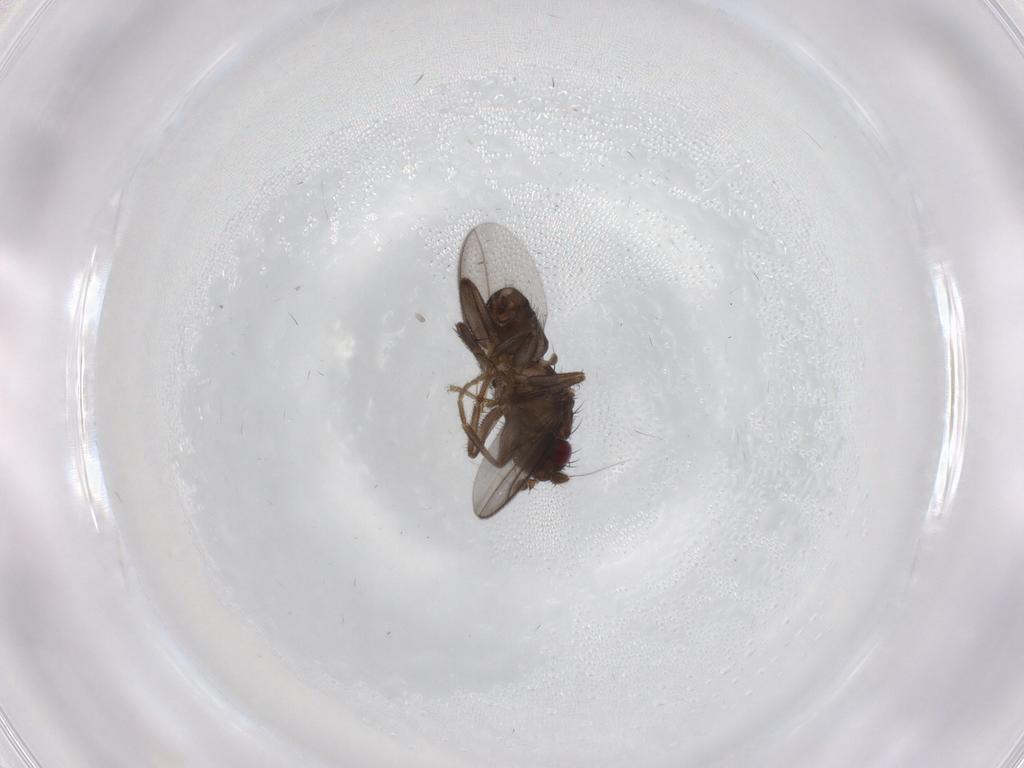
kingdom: Animalia
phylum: Arthropoda
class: Insecta
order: Diptera
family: Sphaeroceridae
